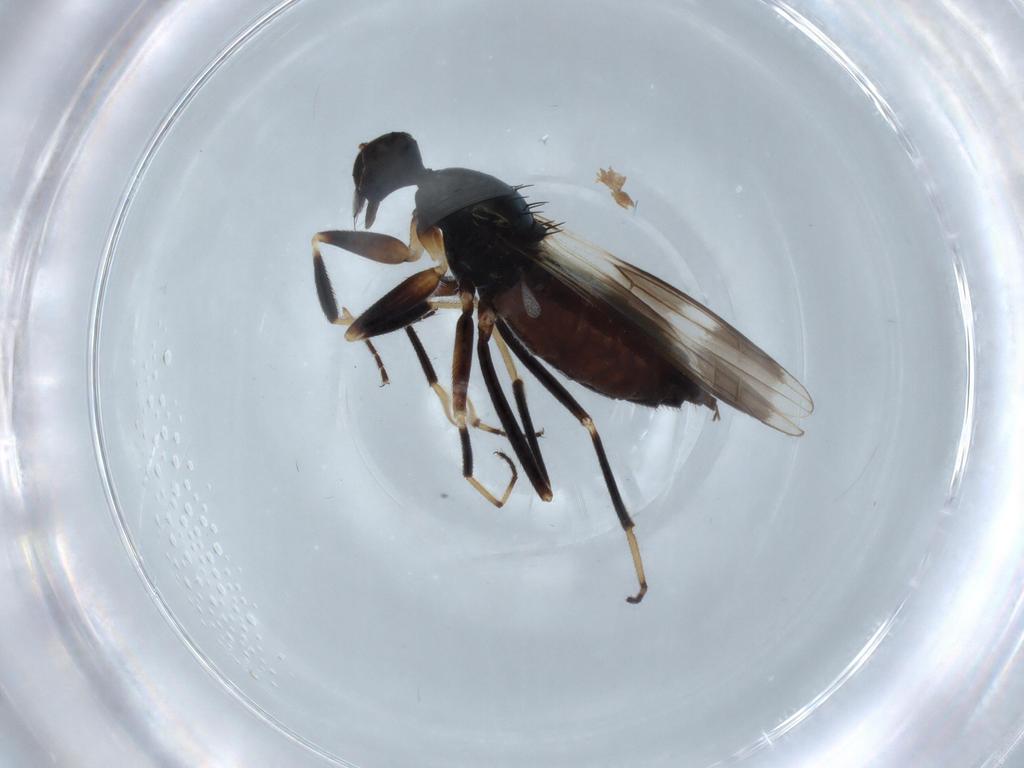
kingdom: Animalia
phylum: Arthropoda
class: Insecta
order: Diptera
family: Hybotidae
